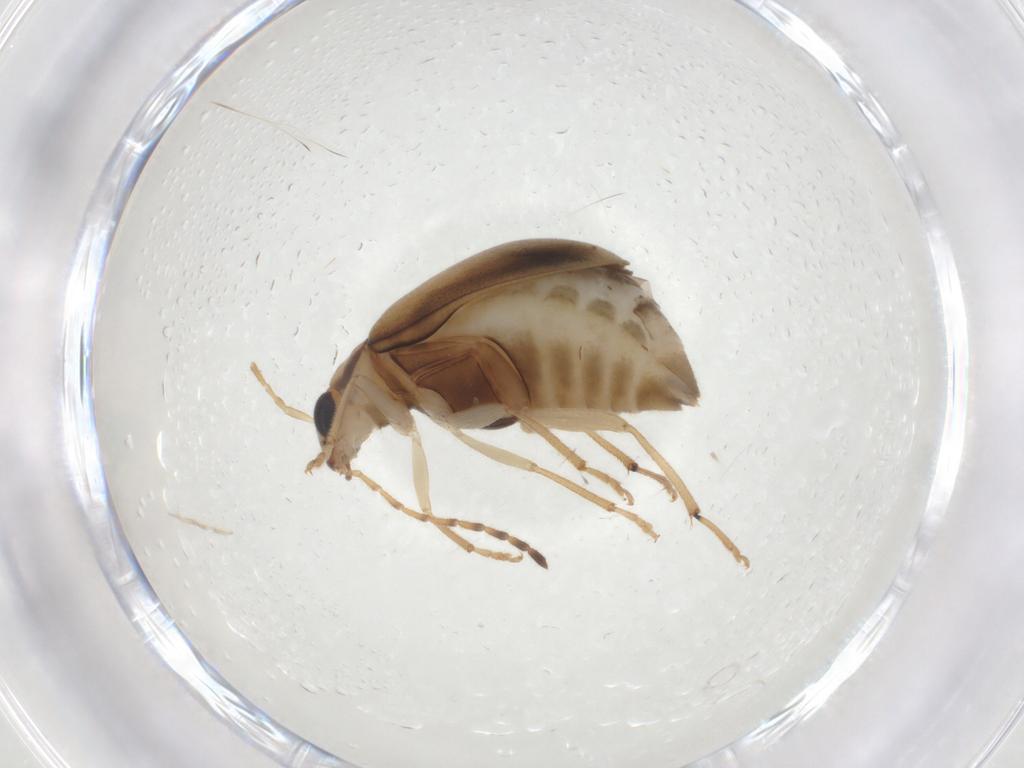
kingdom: Animalia
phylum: Arthropoda
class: Insecta
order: Coleoptera
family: Chrysomelidae
